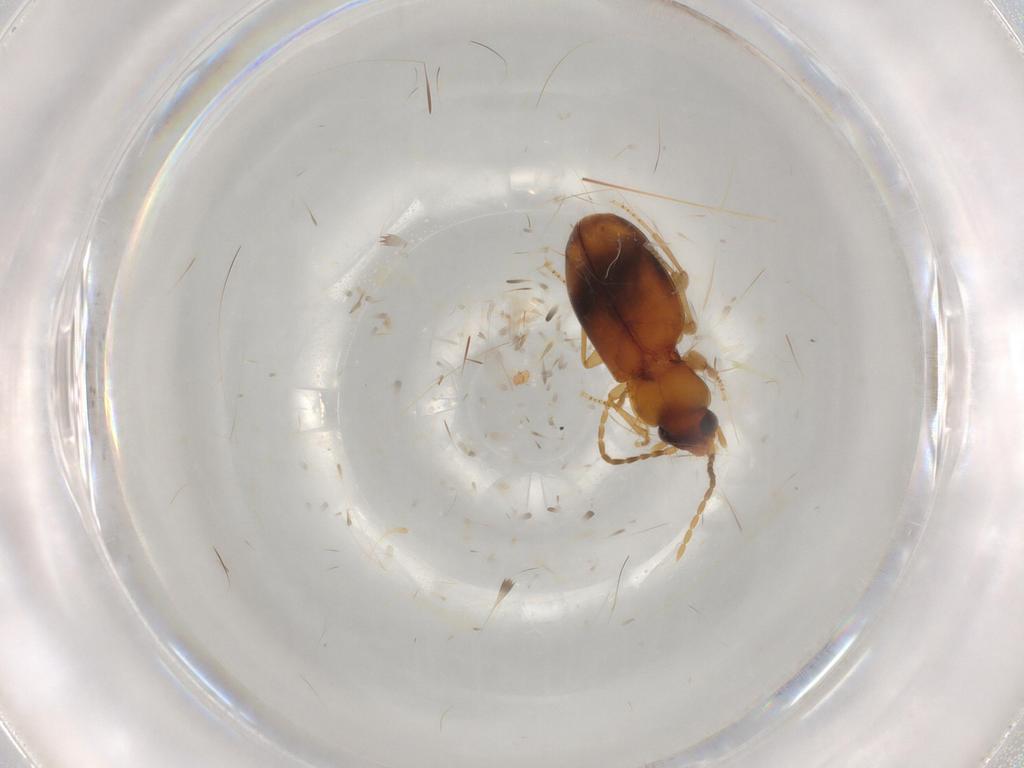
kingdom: Animalia
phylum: Arthropoda
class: Insecta
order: Coleoptera
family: Carabidae
